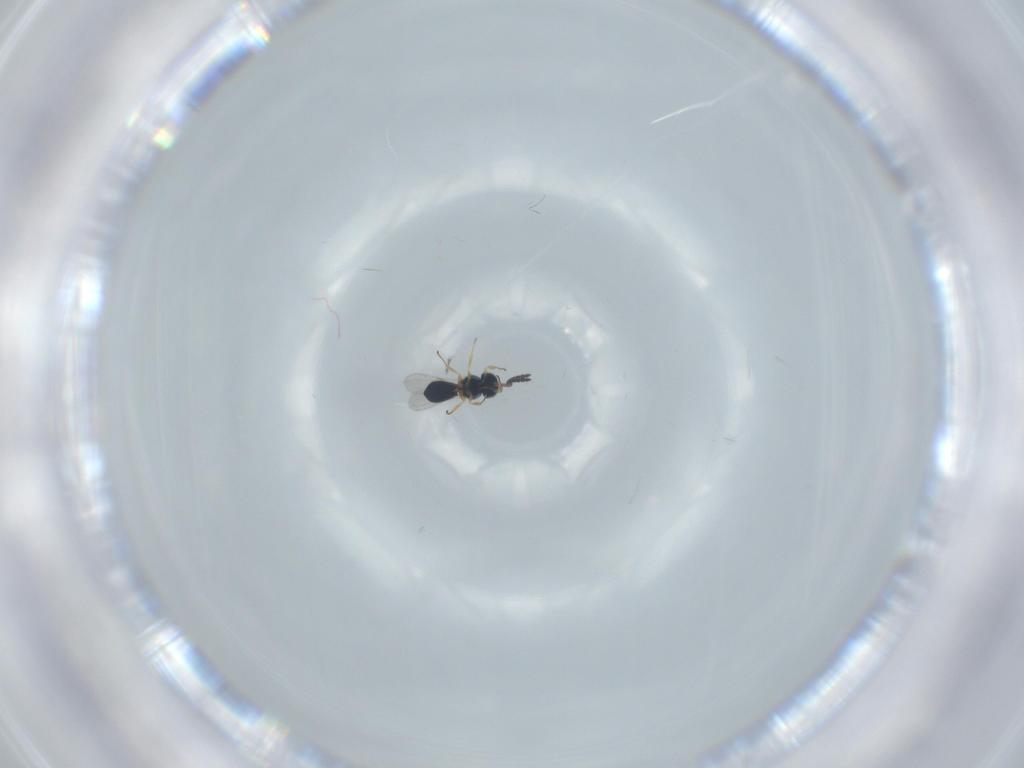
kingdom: Animalia
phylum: Arthropoda
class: Insecta
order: Hymenoptera
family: Scelionidae
